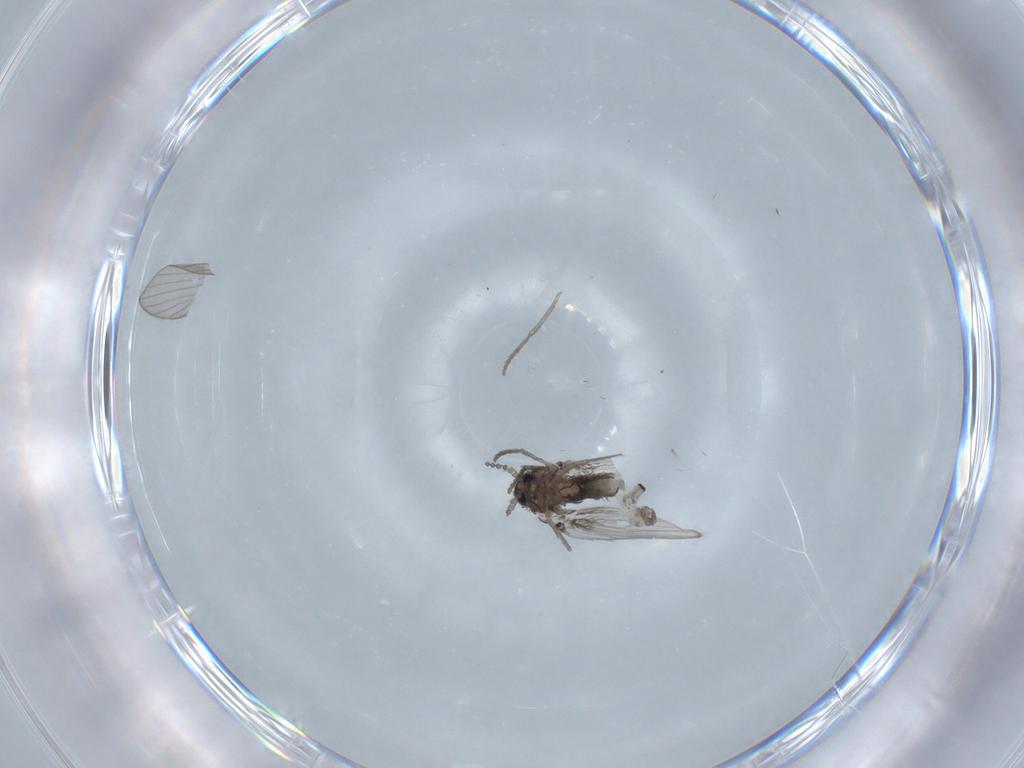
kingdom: Animalia
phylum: Arthropoda
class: Insecta
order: Diptera
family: Psychodidae
